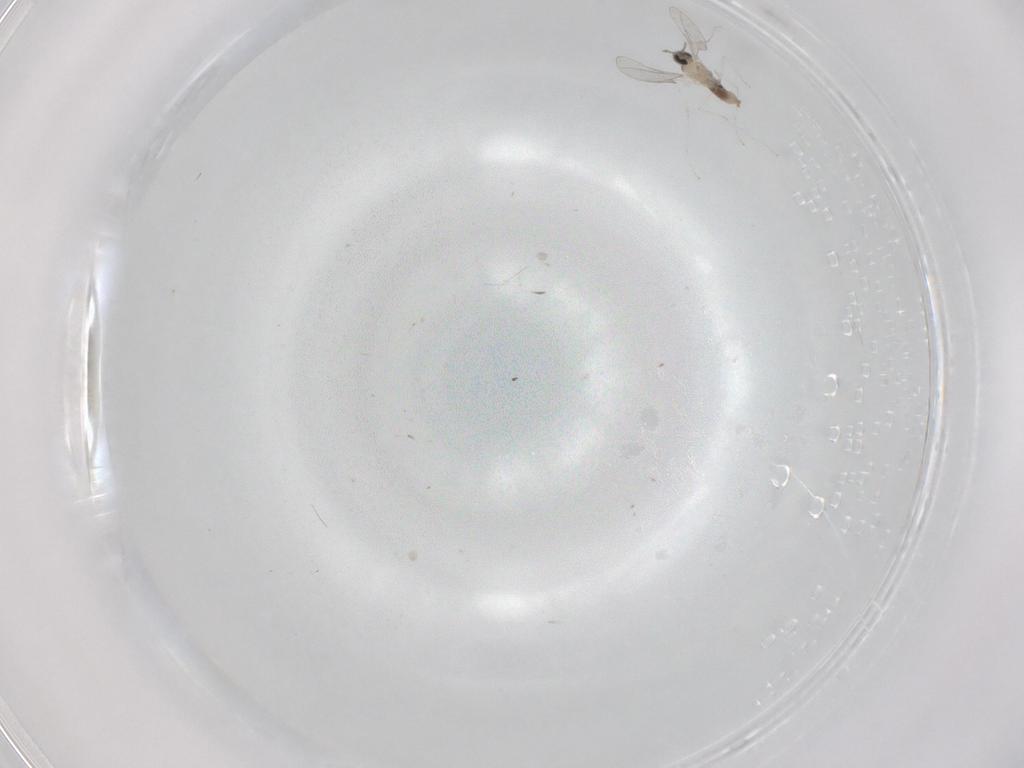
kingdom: Animalia
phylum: Arthropoda
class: Insecta
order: Diptera
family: Cecidomyiidae
